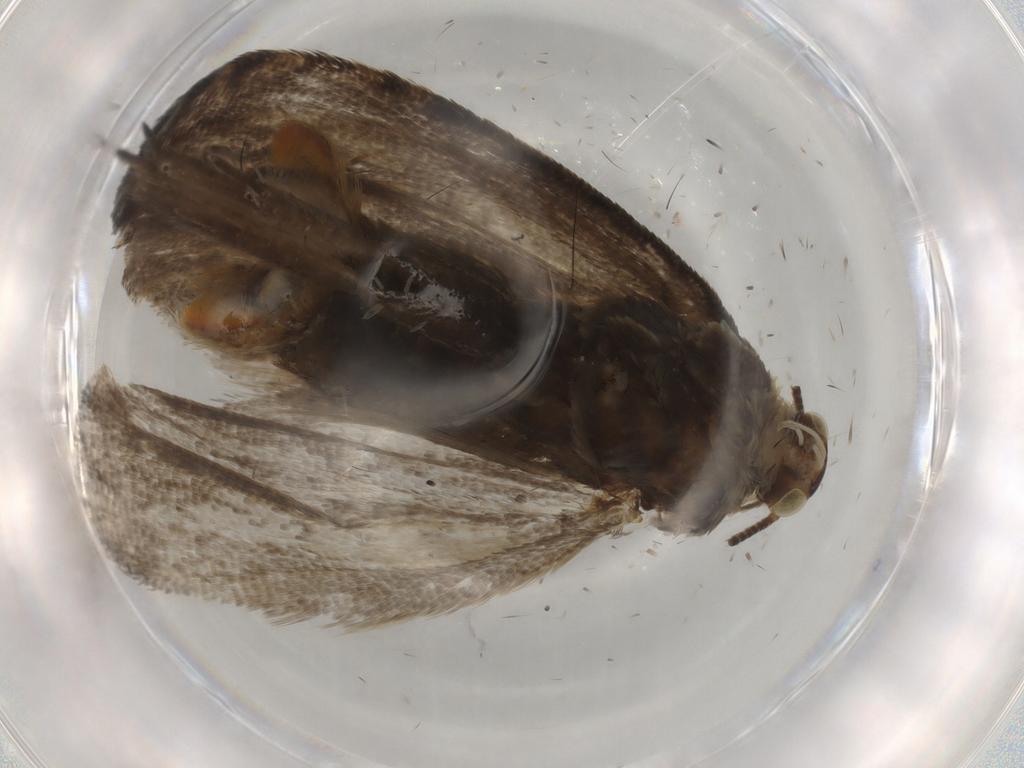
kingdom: Animalia
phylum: Arthropoda
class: Insecta
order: Lepidoptera
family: Tortricidae
